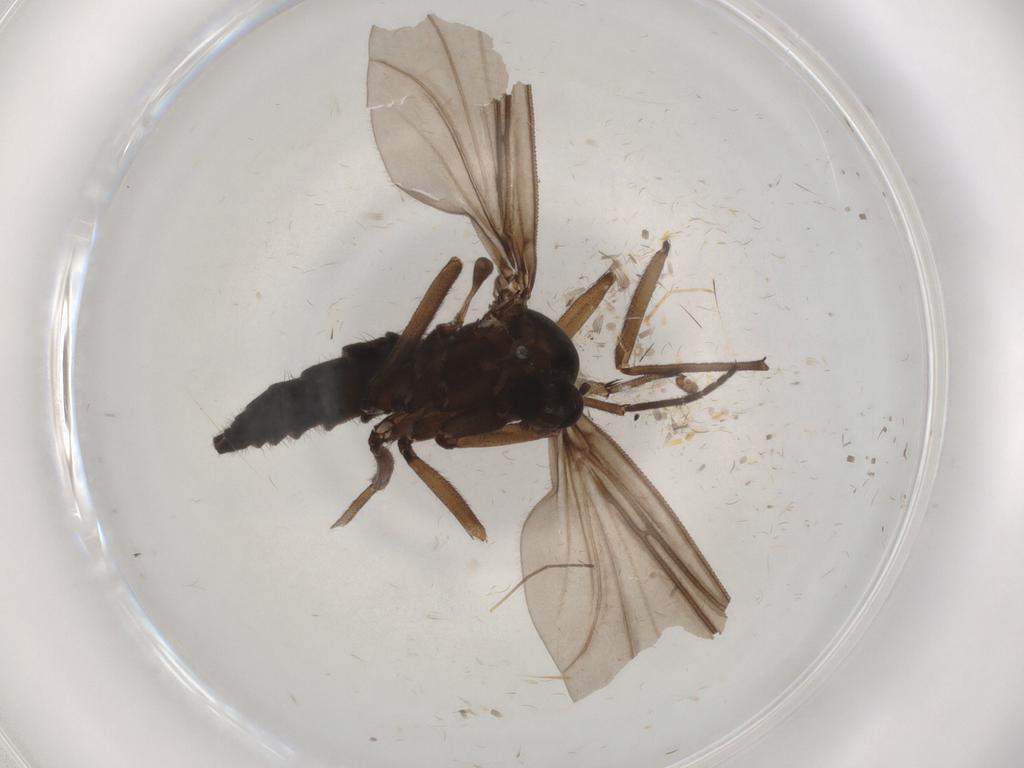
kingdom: Animalia
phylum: Arthropoda
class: Insecta
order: Diptera
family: Sciaridae
